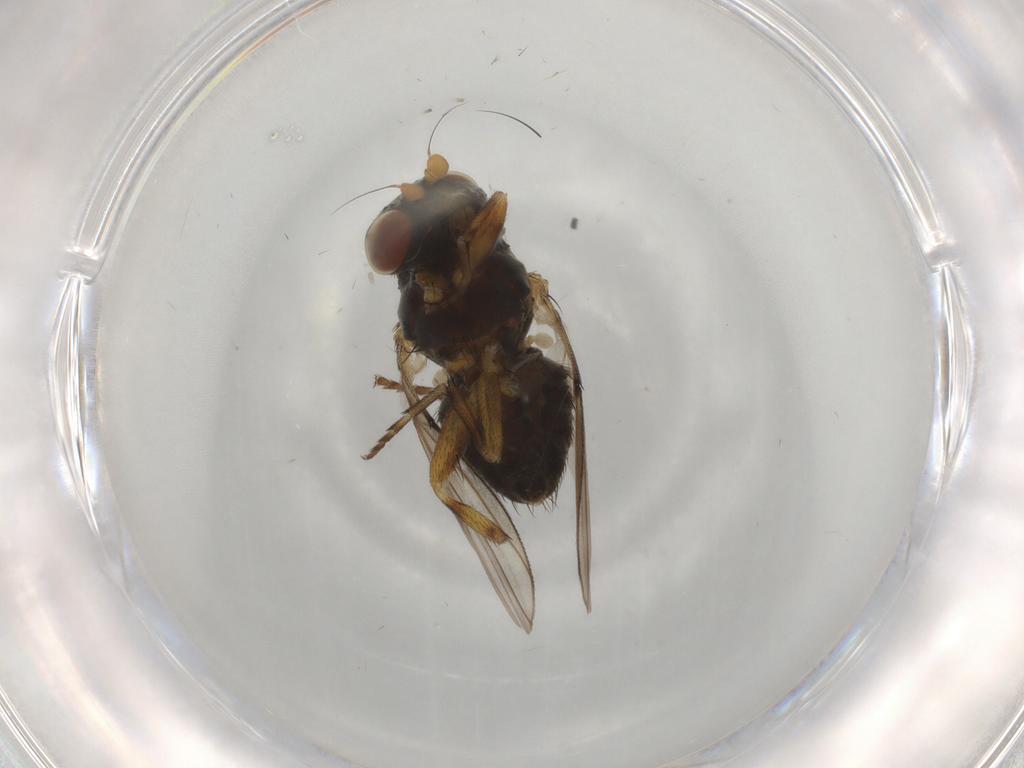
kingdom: Animalia
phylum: Arthropoda
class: Insecta
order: Diptera
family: Odiniidae
